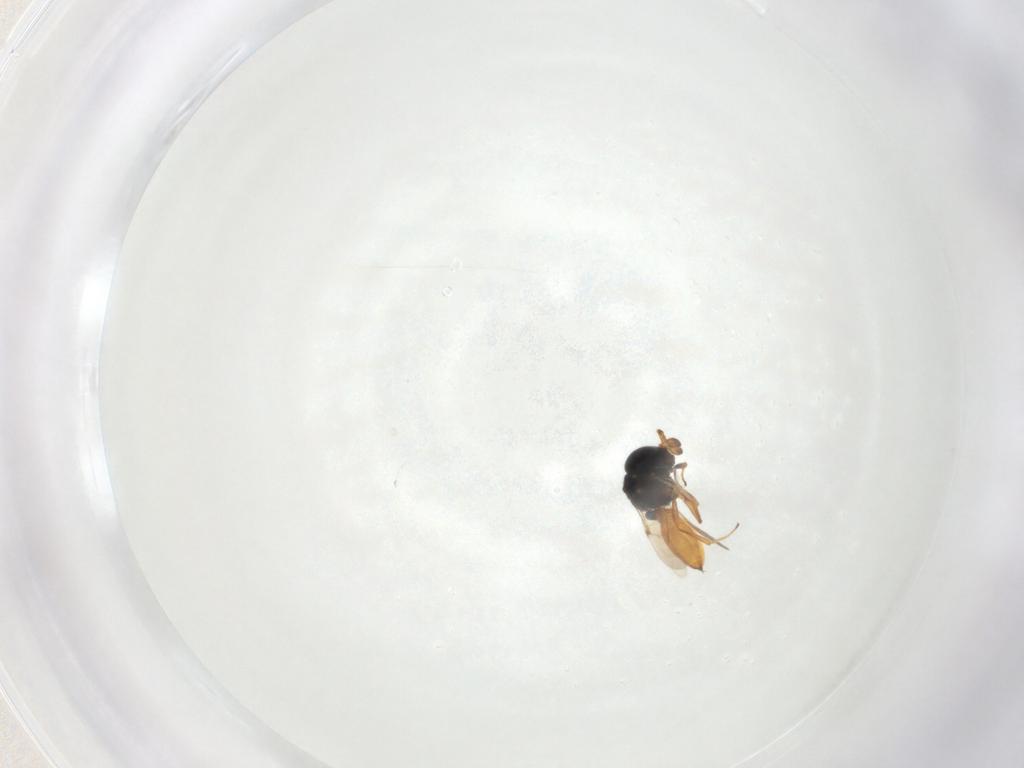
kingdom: Animalia
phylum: Arthropoda
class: Insecta
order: Hymenoptera
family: Scelionidae
